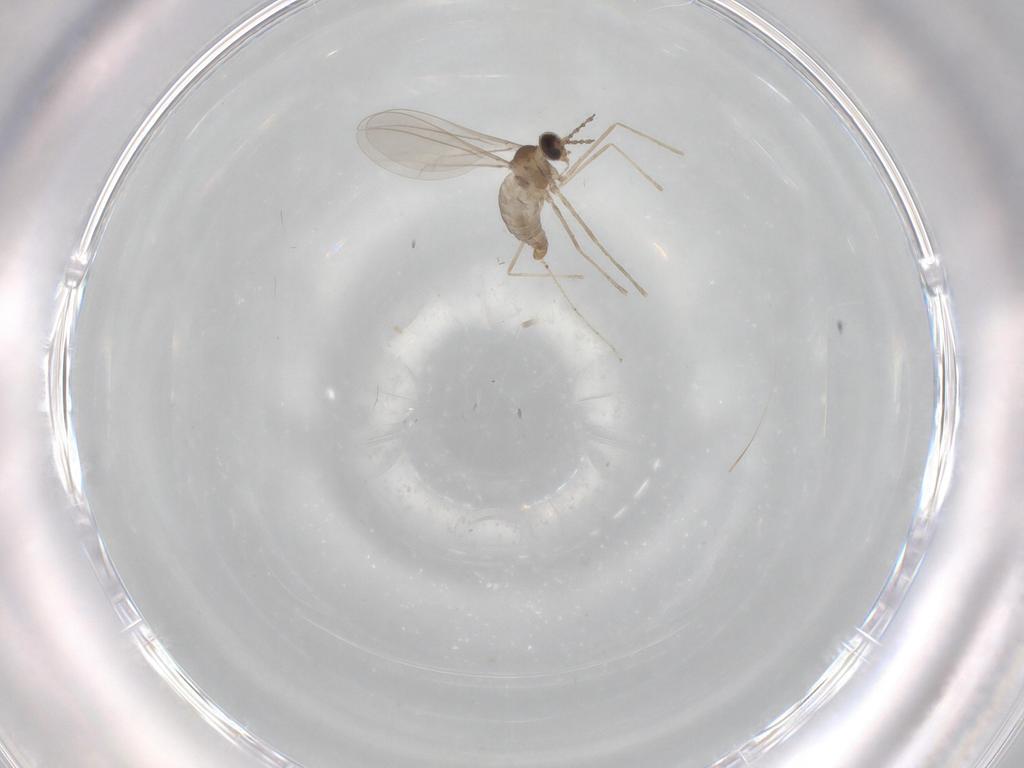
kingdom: Animalia
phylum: Arthropoda
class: Insecta
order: Diptera
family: Ceratopogonidae
